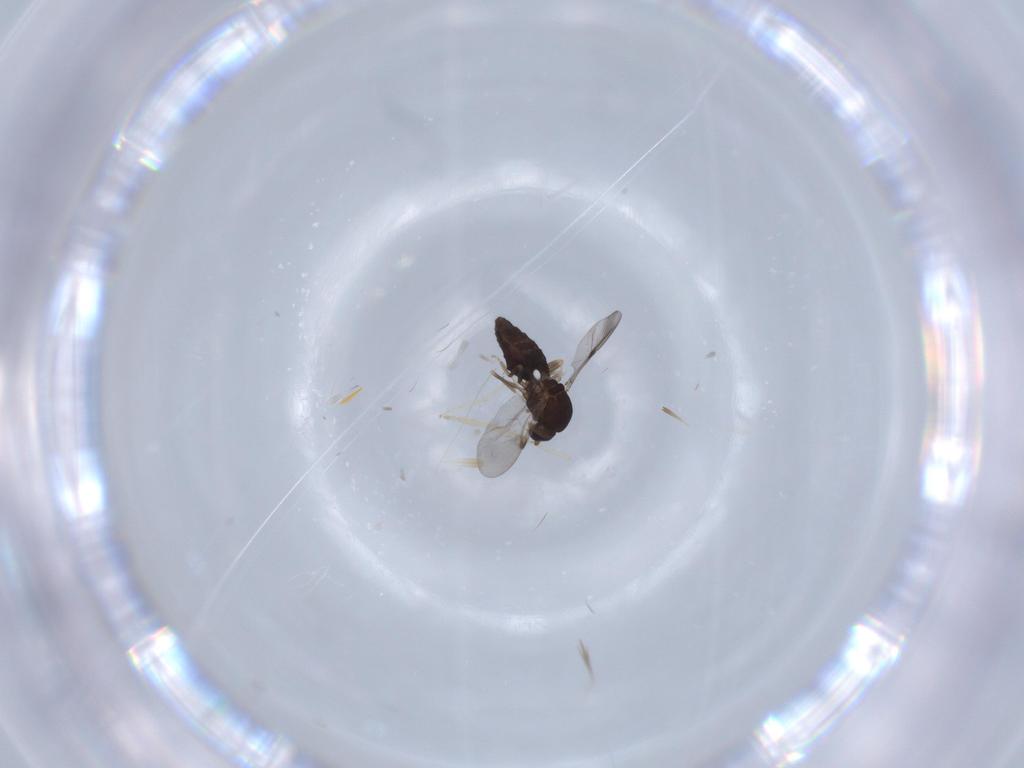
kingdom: Animalia
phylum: Arthropoda
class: Insecta
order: Diptera
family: Ceratopogonidae
